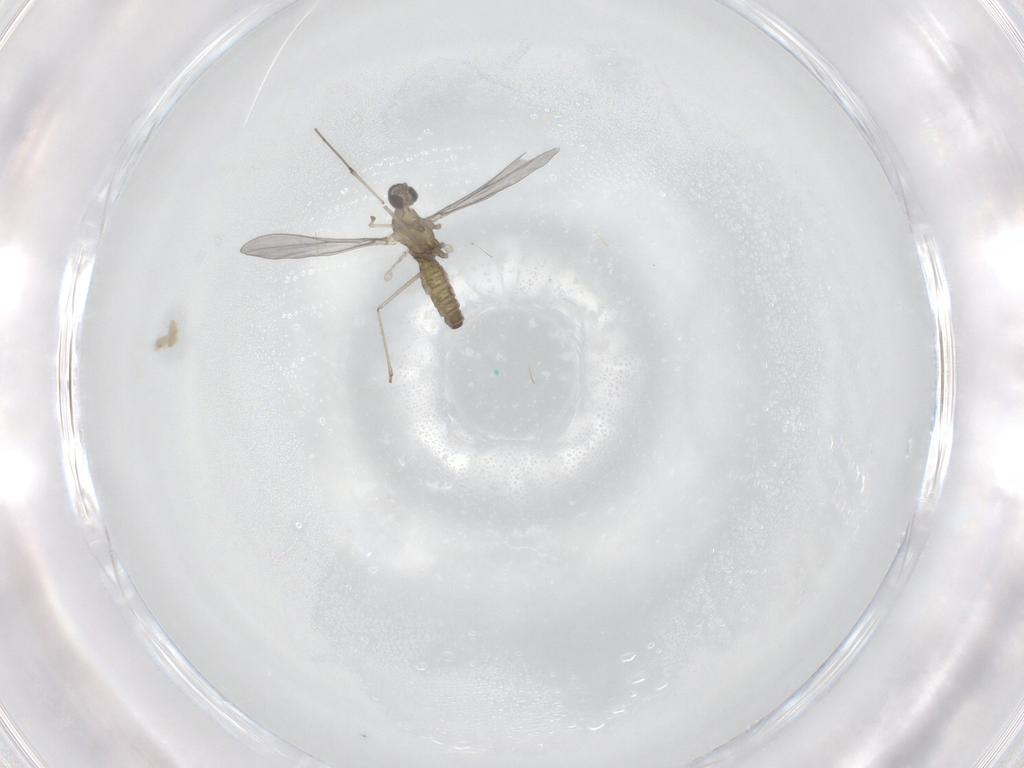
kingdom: Animalia
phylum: Arthropoda
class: Insecta
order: Diptera
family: Cecidomyiidae
